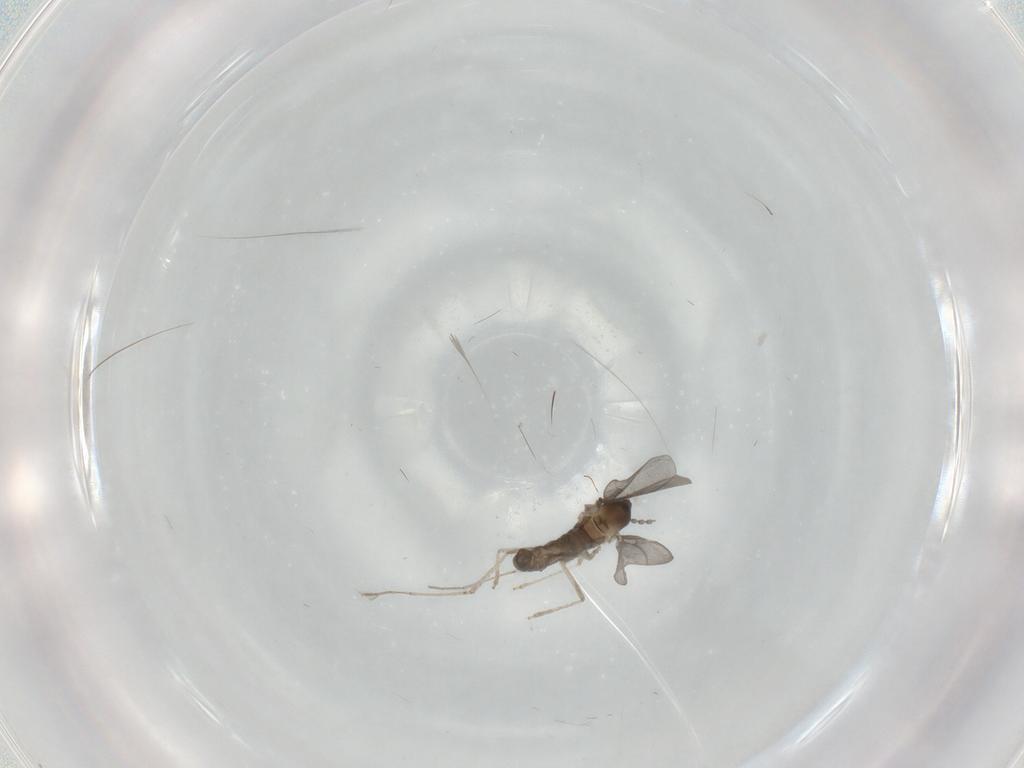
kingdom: Animalia
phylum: Arthropoda
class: Insecta
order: Diptera
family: Cecidomyiidae
